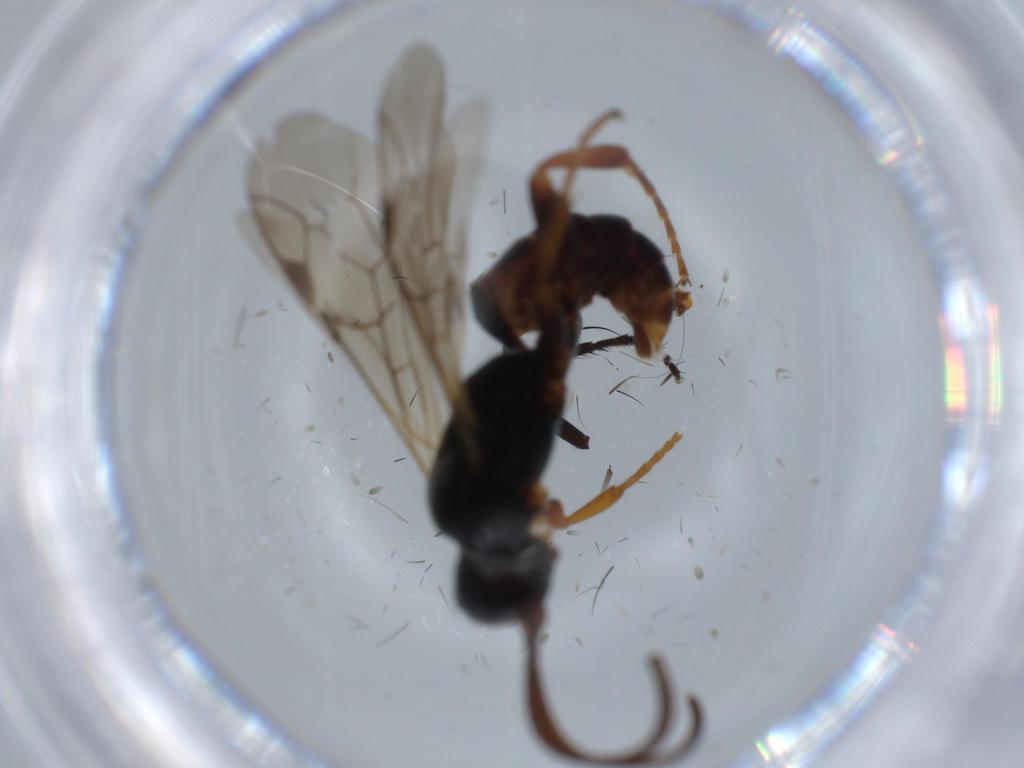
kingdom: Animalia
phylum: Arthropoda
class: Insecta
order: Hymenoptera
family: Ichneumonidae
